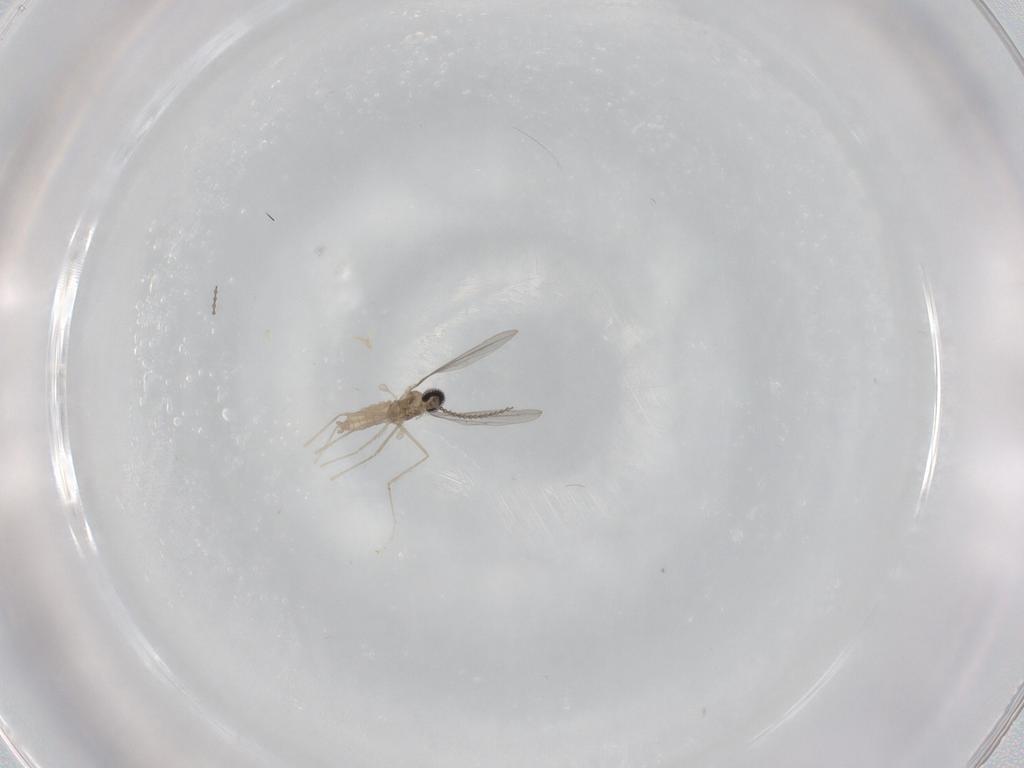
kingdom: Animalia
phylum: Arthropoda
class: Insecta
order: Diptera
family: Cecidomyiidae
